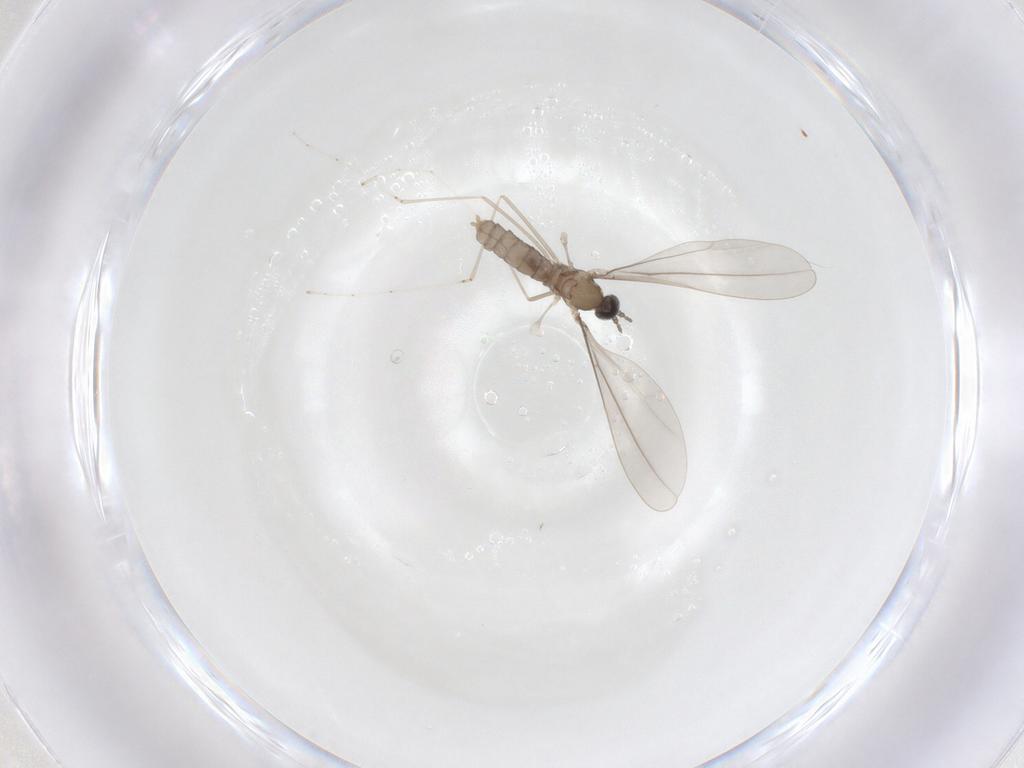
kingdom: Animalia
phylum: Arthropoda
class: Insecta
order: Diptera
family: Cecidomyiidae
